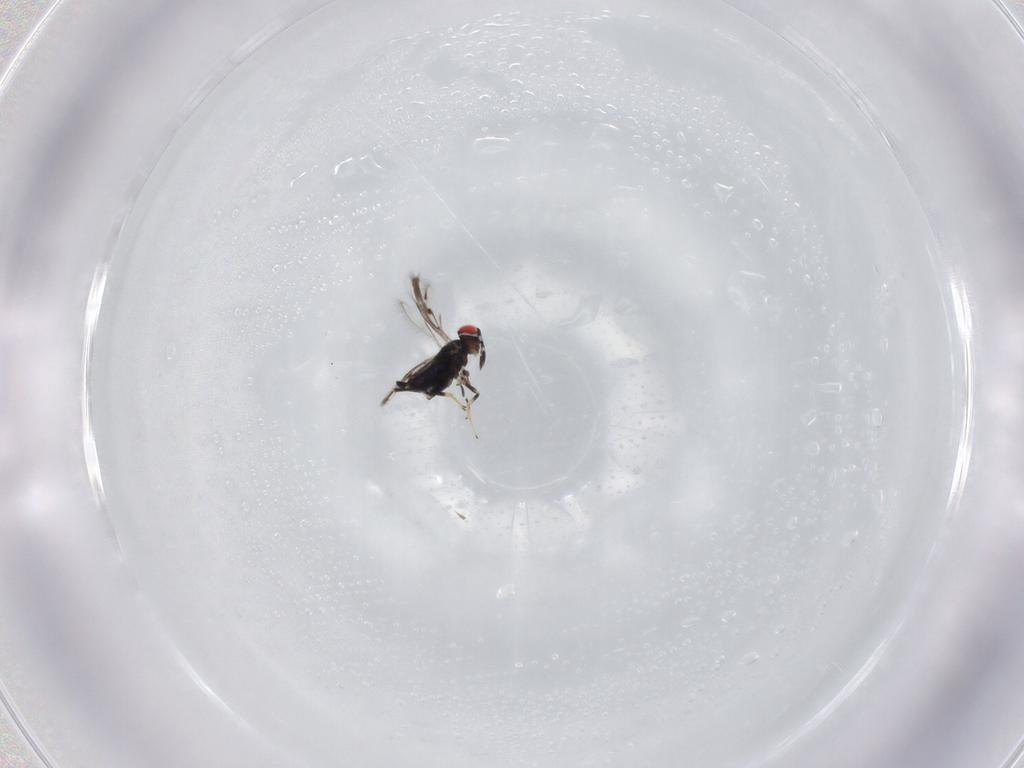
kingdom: Animalia
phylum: Arthropoda
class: Insecta
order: Hymenoptera
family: Azotidae
